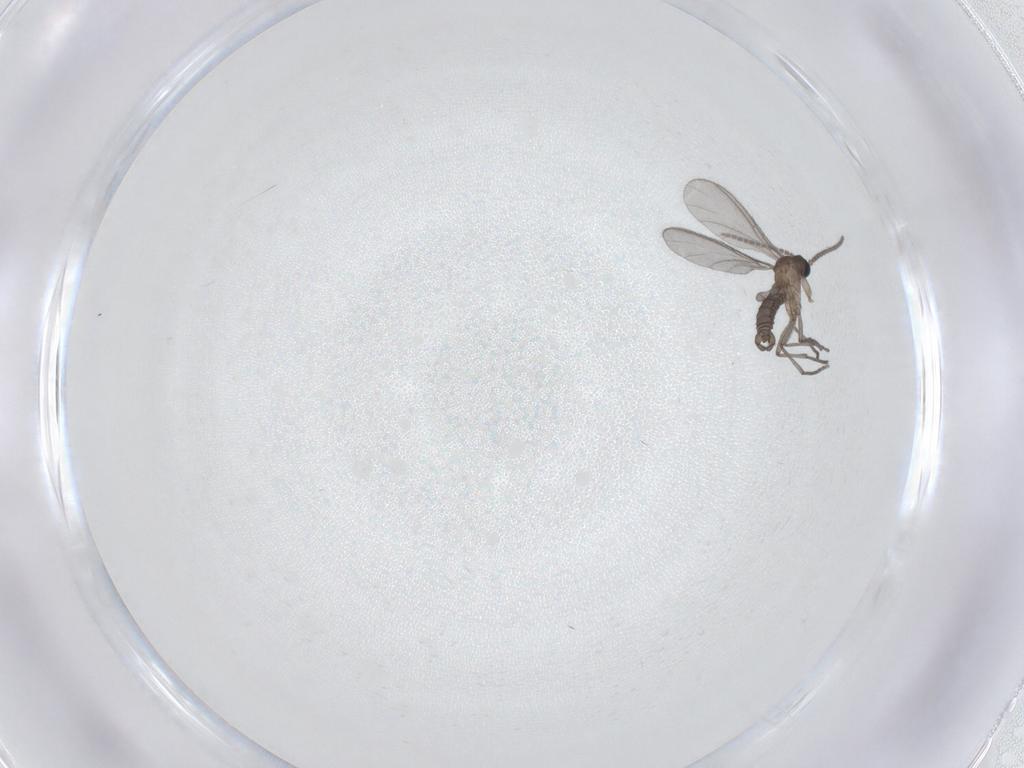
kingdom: Animalia
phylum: Arthropoda
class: Insecta
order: Diptera
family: Sciaridae
